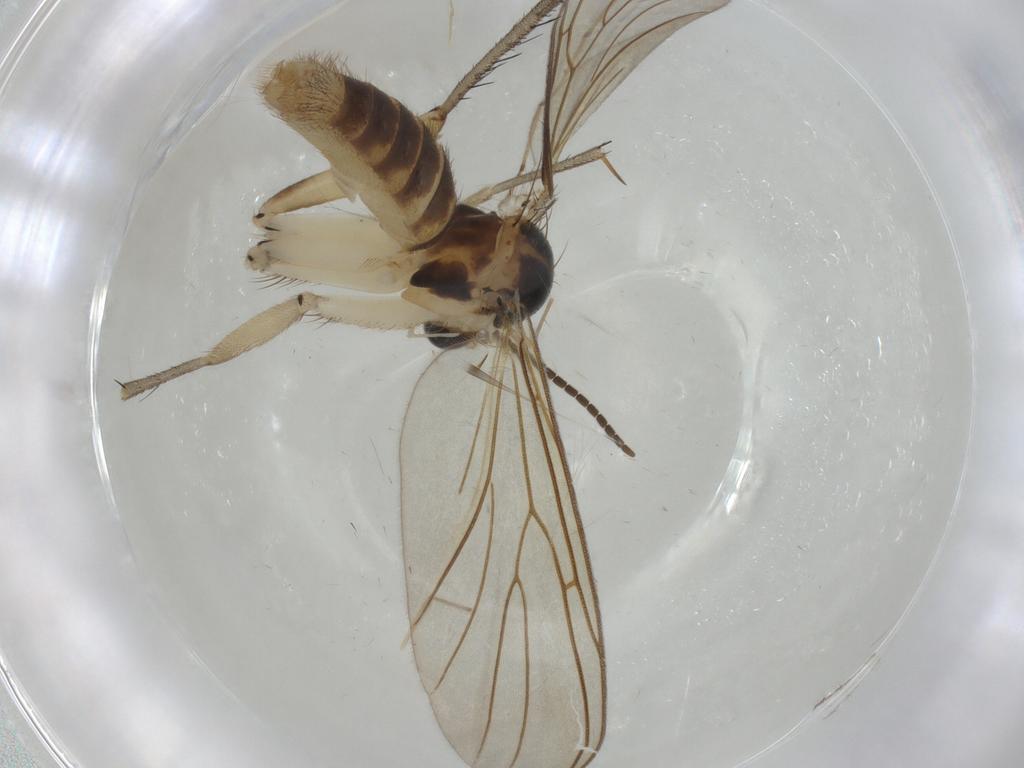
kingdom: Animalia
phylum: Arthropoda
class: Insecta
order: Diptera
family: Chironomidae
